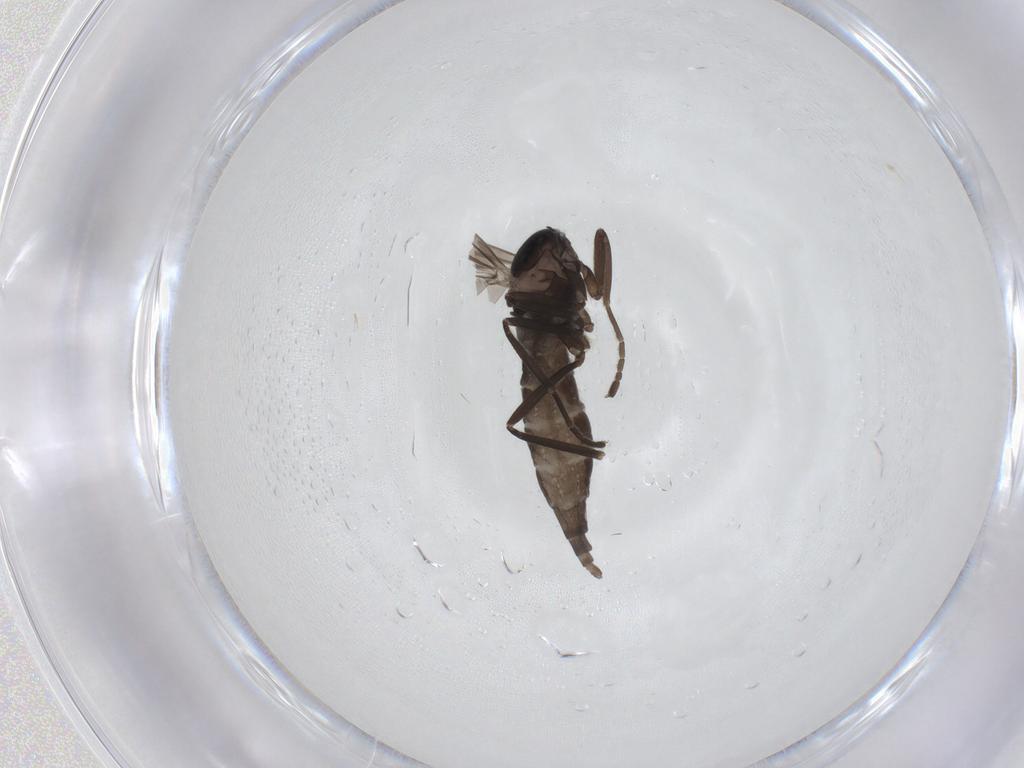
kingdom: Animalia
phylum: Arthropoda
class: Insecta
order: Diptera
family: Cecidomyiidae
